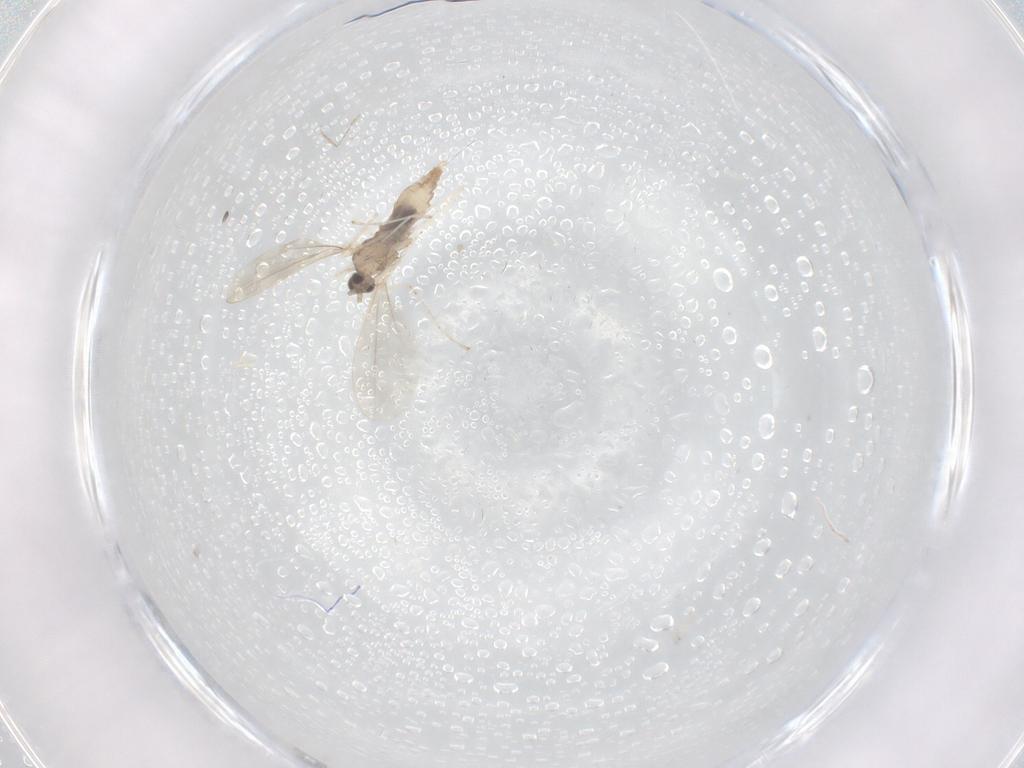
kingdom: Animalia
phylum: Arthropoda
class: Insecta
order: Diptera
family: Cecidomyiidae
